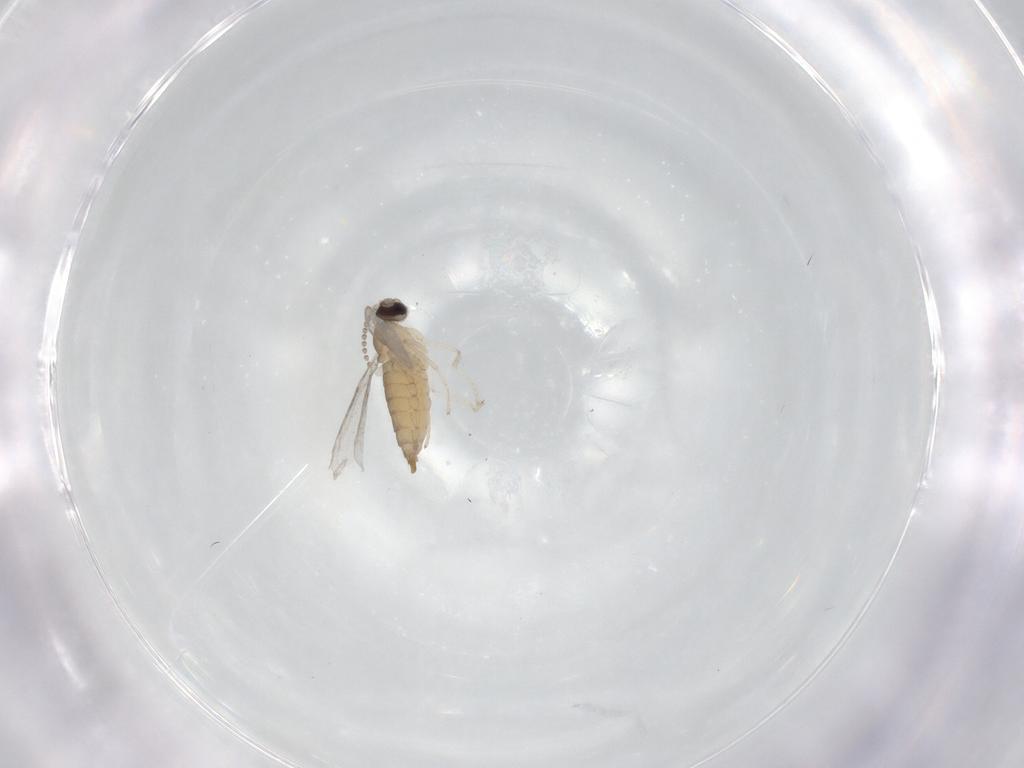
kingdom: Animalia
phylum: Arthropoda
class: Insecta
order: Diptera
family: Cecidomyiidae
